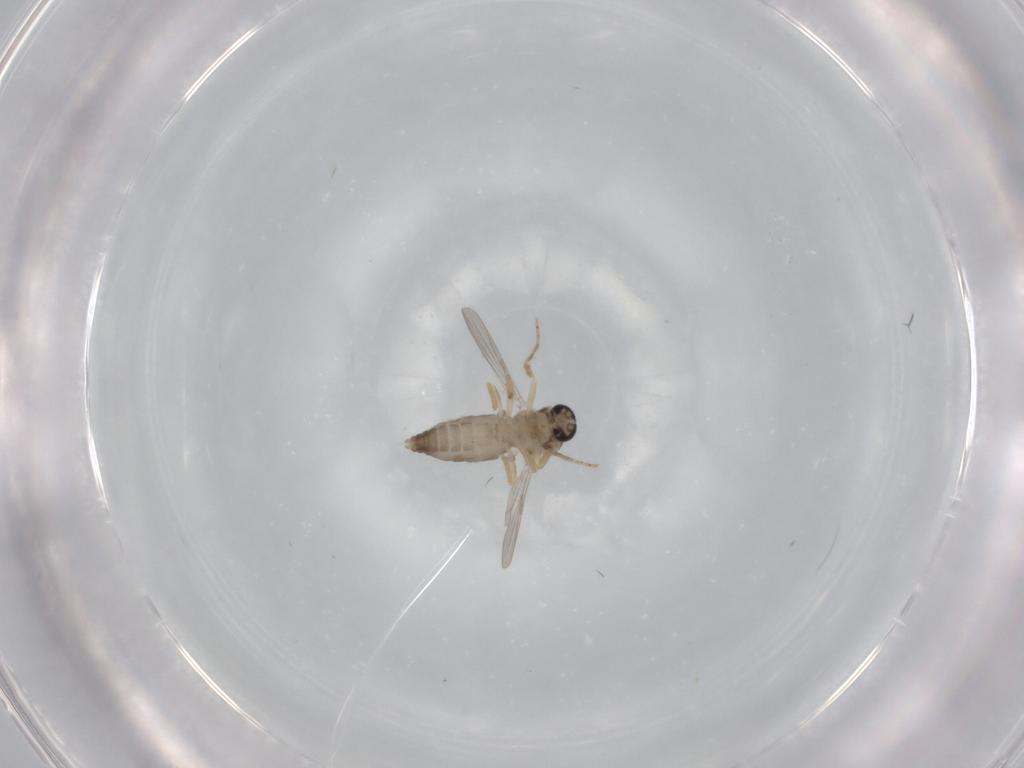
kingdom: Animalia
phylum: Arthropoda
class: Insecta
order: Diptera
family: Ceratopogonidae
